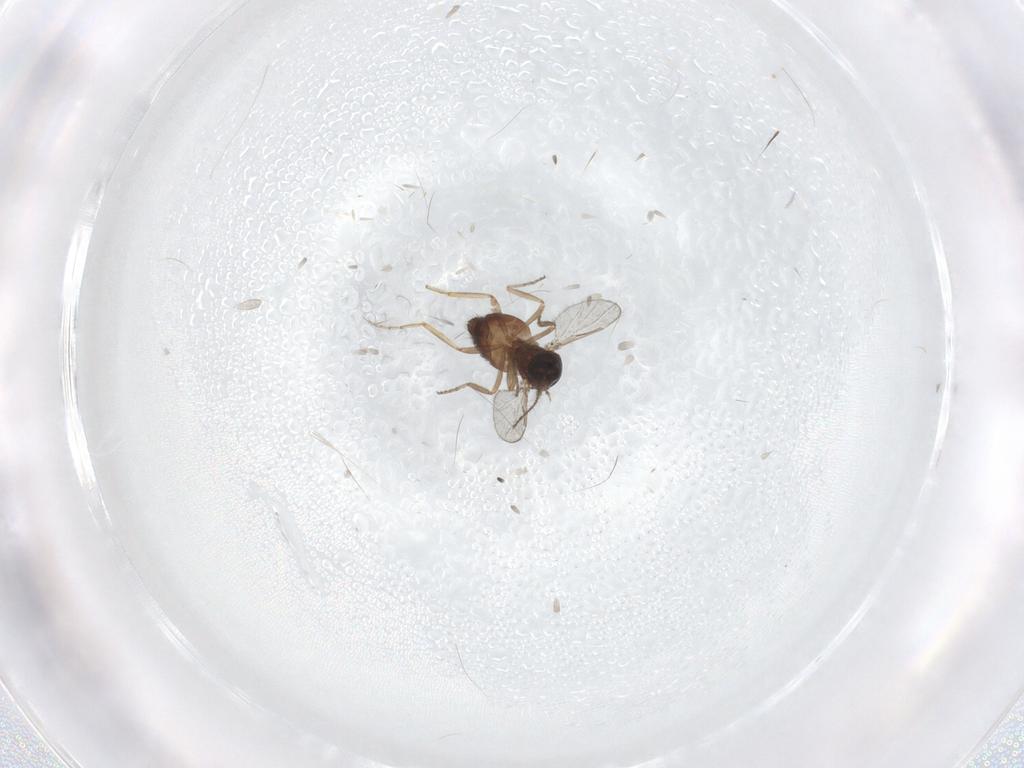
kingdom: Animalia
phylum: Arthropoda
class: Insecta
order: Diptera
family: Ceratopogonidae
